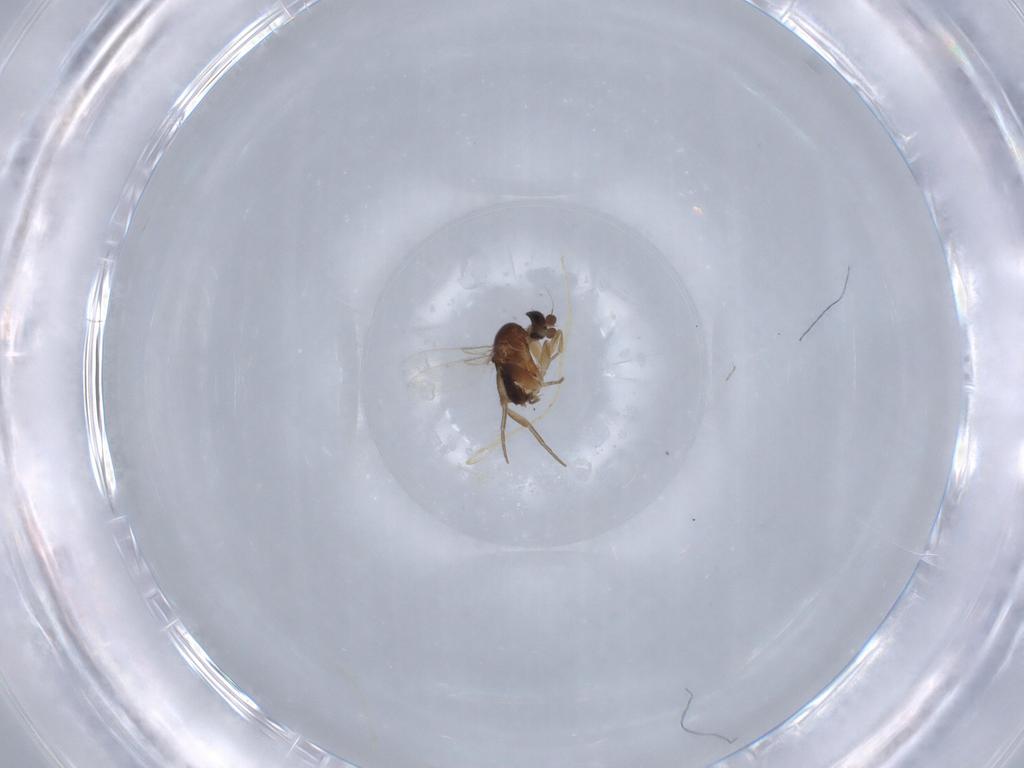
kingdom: Animalia
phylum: Arthropoda
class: Insecta
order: Diptera
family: Phoridae
